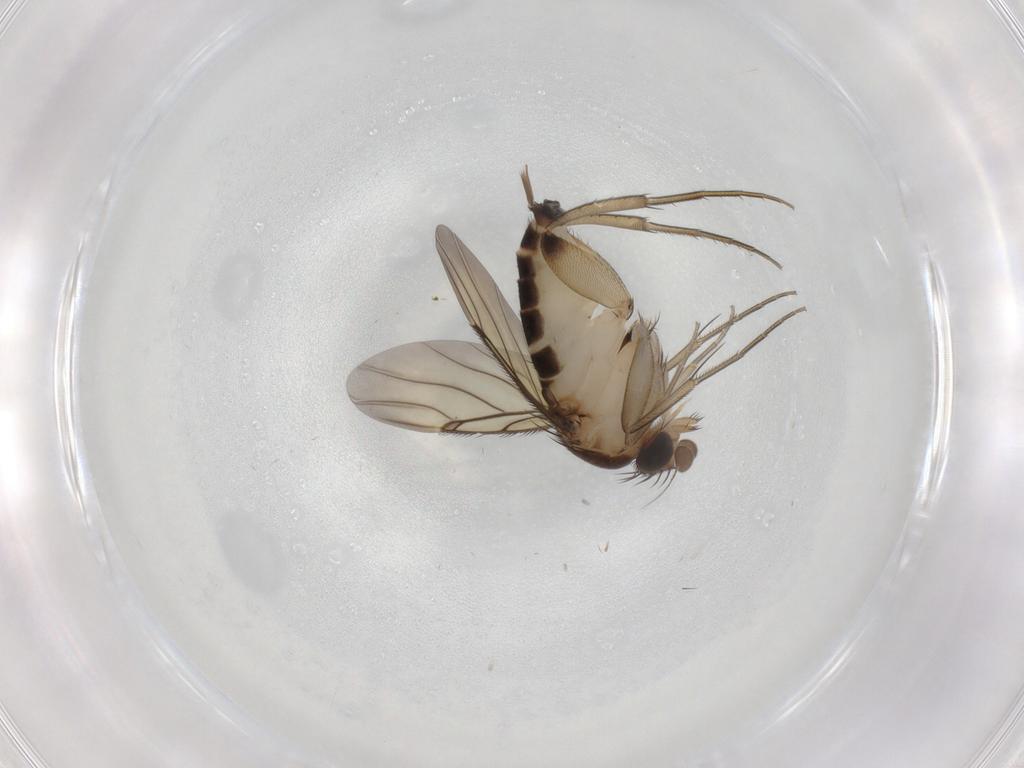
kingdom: Animalia
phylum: Arthropoda
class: Insecta
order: Diptera
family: Phoridae
